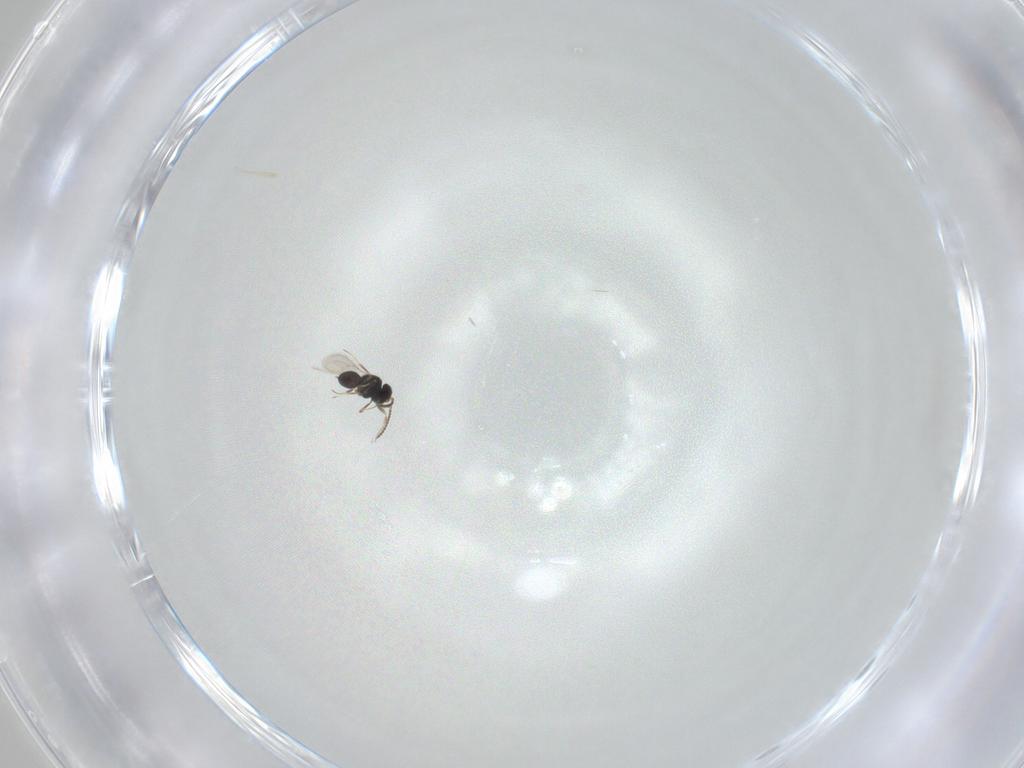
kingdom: Animalia
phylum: Arthropoda
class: Insecta
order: Hymenoptera
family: Scelionidae
